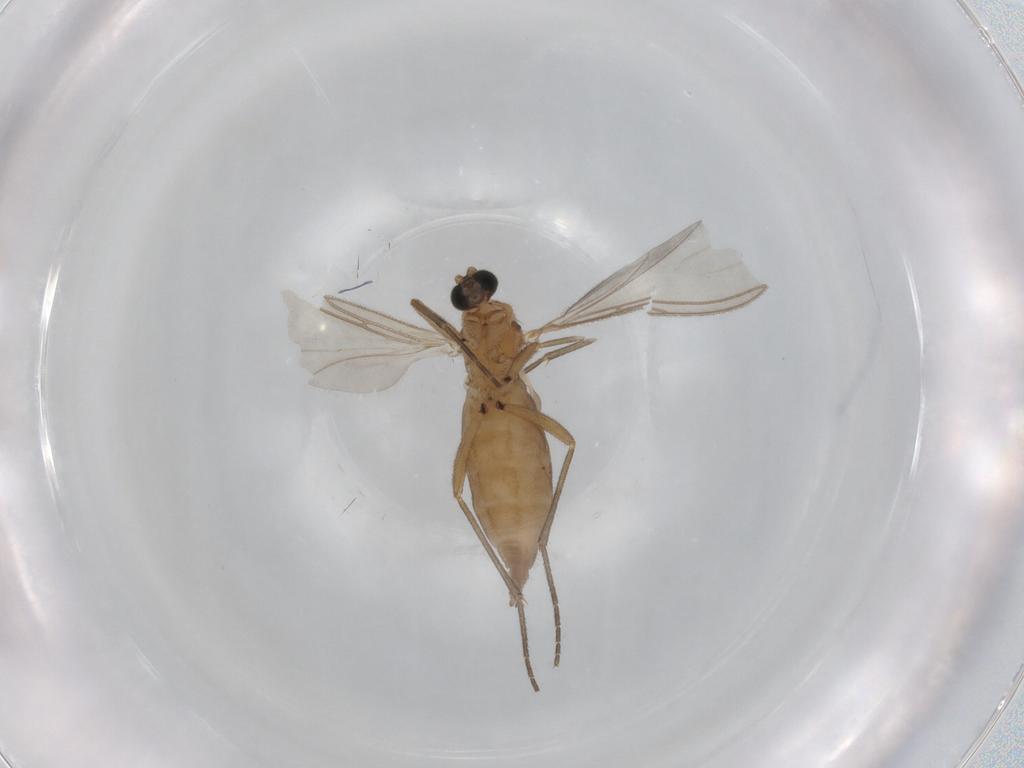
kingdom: Animalia
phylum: Arthropoda
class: Insecta
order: Diptera
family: Sciaridae
